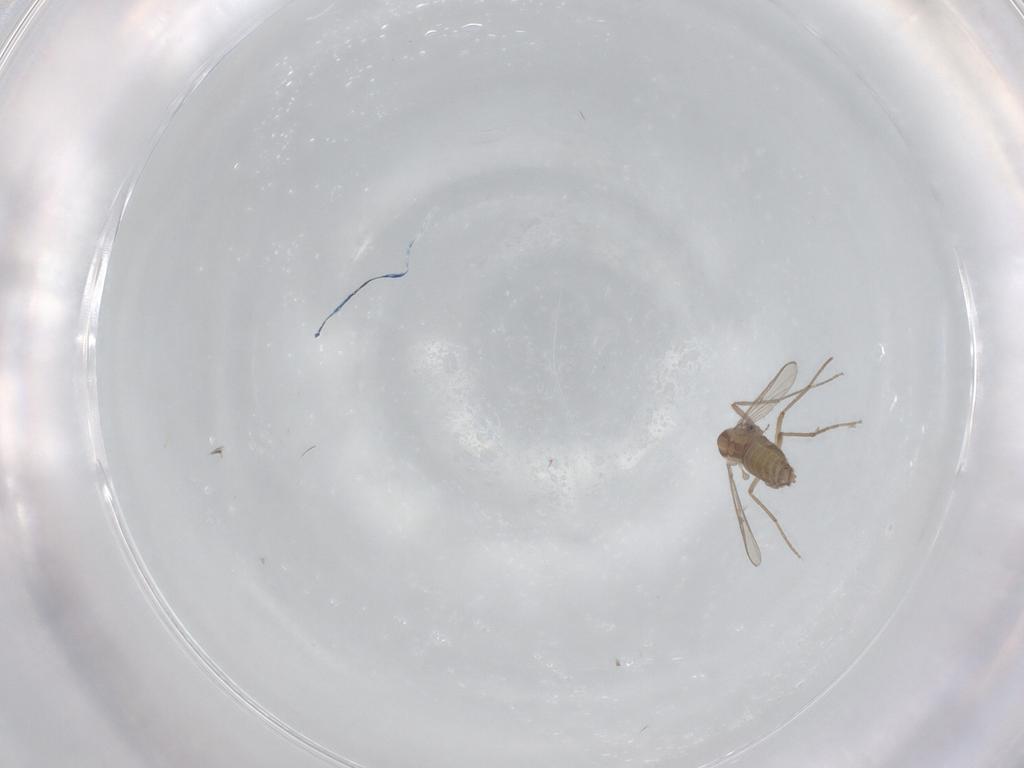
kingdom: Animalia
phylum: Arthropoda
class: Insecta
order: Diptera
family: Chironomidae
